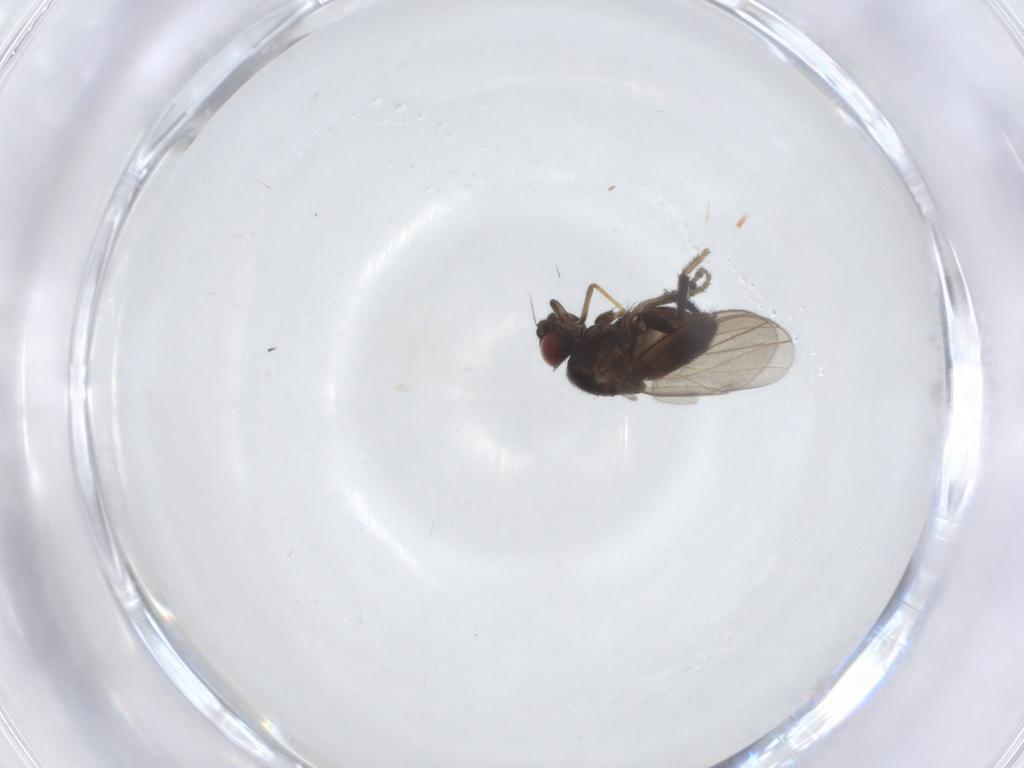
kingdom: Animalia
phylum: Arthropoda
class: Insecta
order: Diptera
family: Milichiidae
